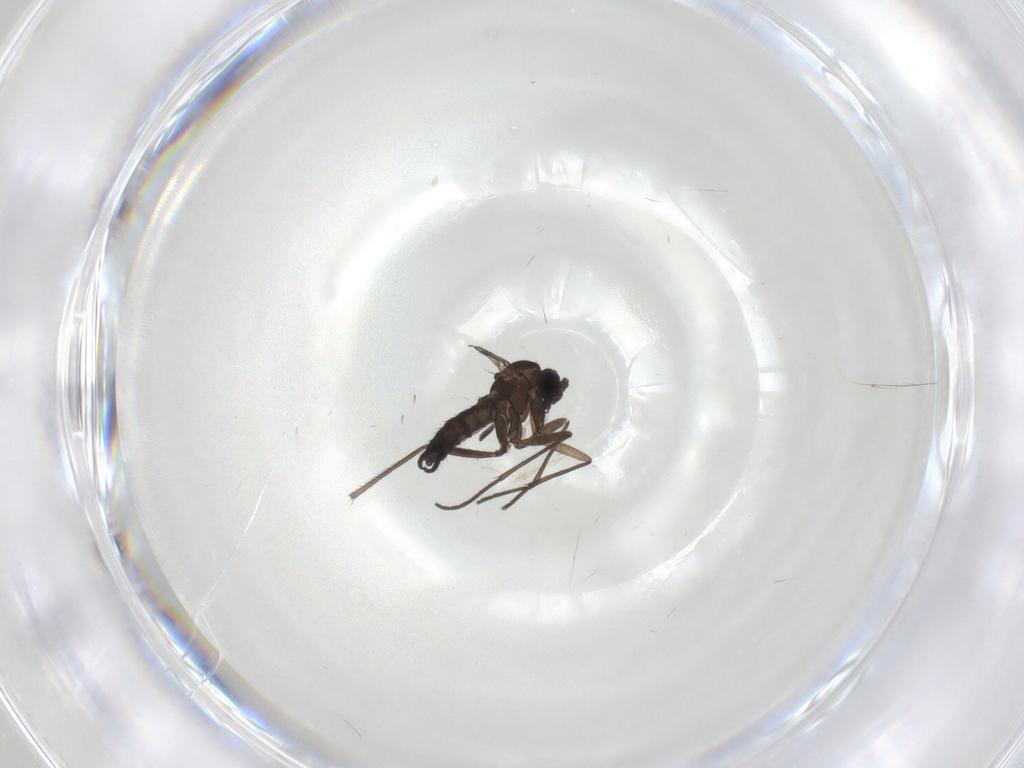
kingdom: Animalia
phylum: Arthropoda
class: Insecta
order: Diptera
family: Sciaridae
